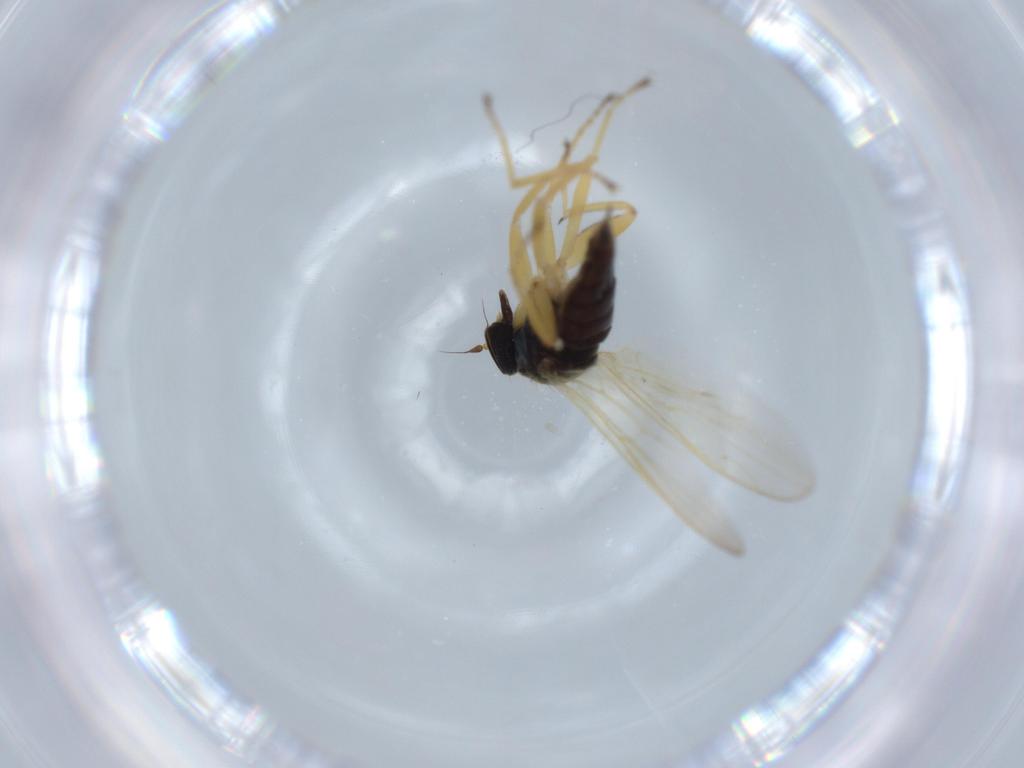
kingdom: Animalia
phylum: Arthropoda
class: Insecta
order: Diptera
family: Hybotidae
